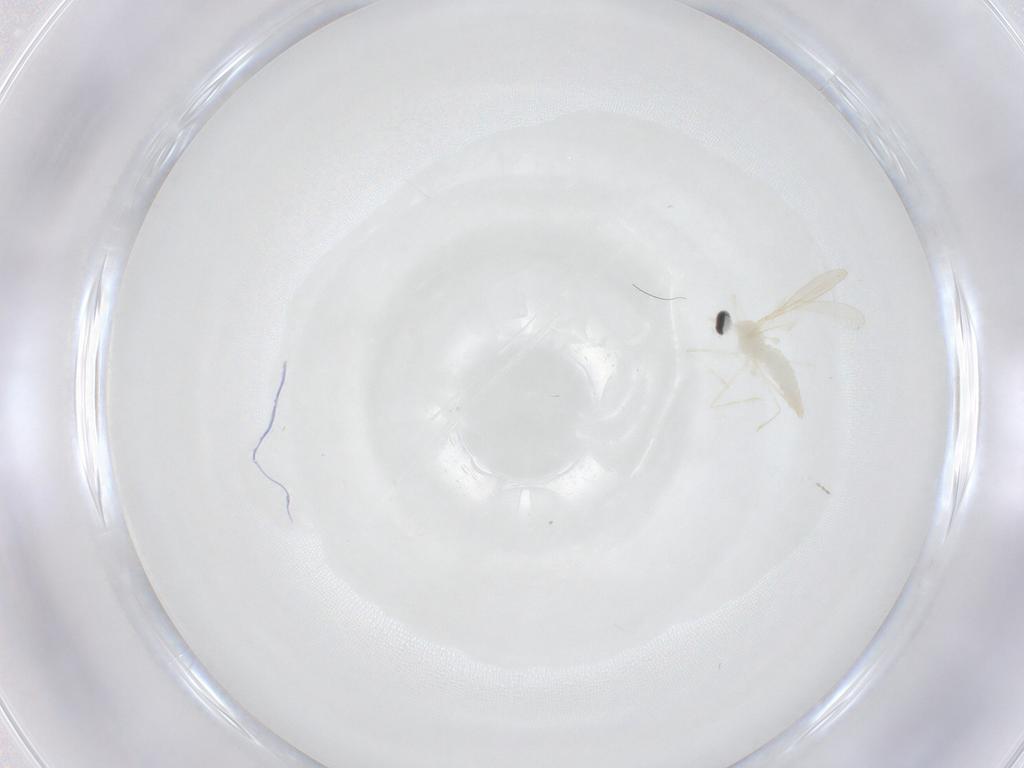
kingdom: Animalia
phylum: Arthropoda
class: Insecta
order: Diptera
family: Cecidomyiidae
